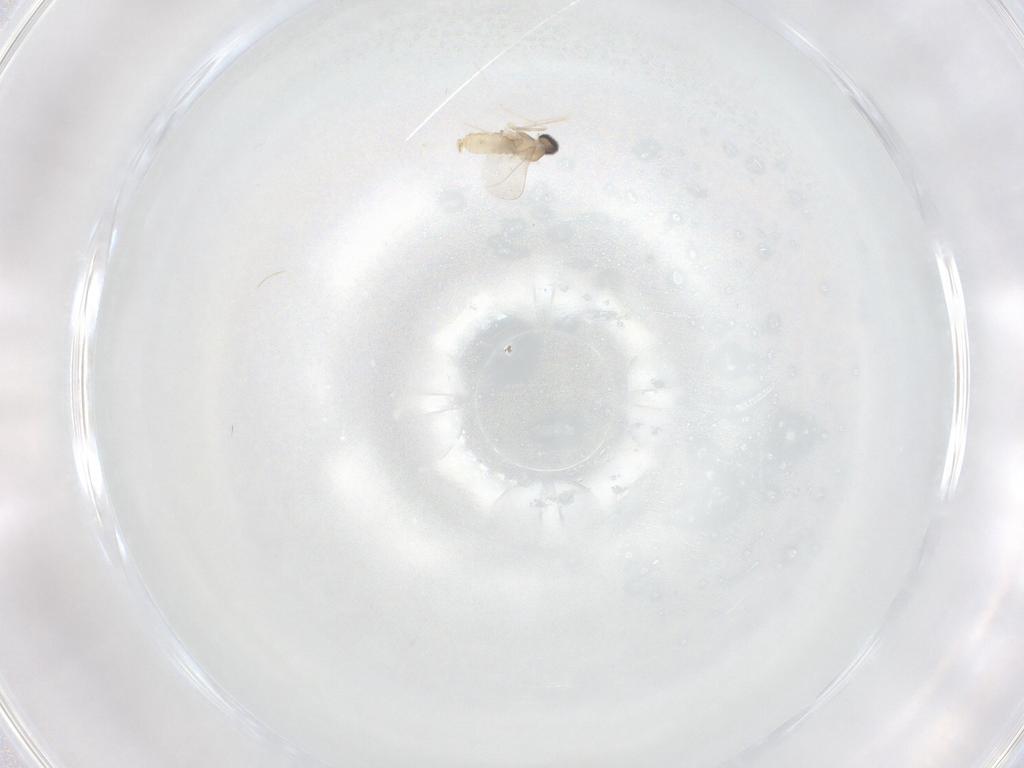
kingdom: Animalia
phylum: Arthropoda
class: Insecta
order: Diptera
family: Cecidomyiidae
